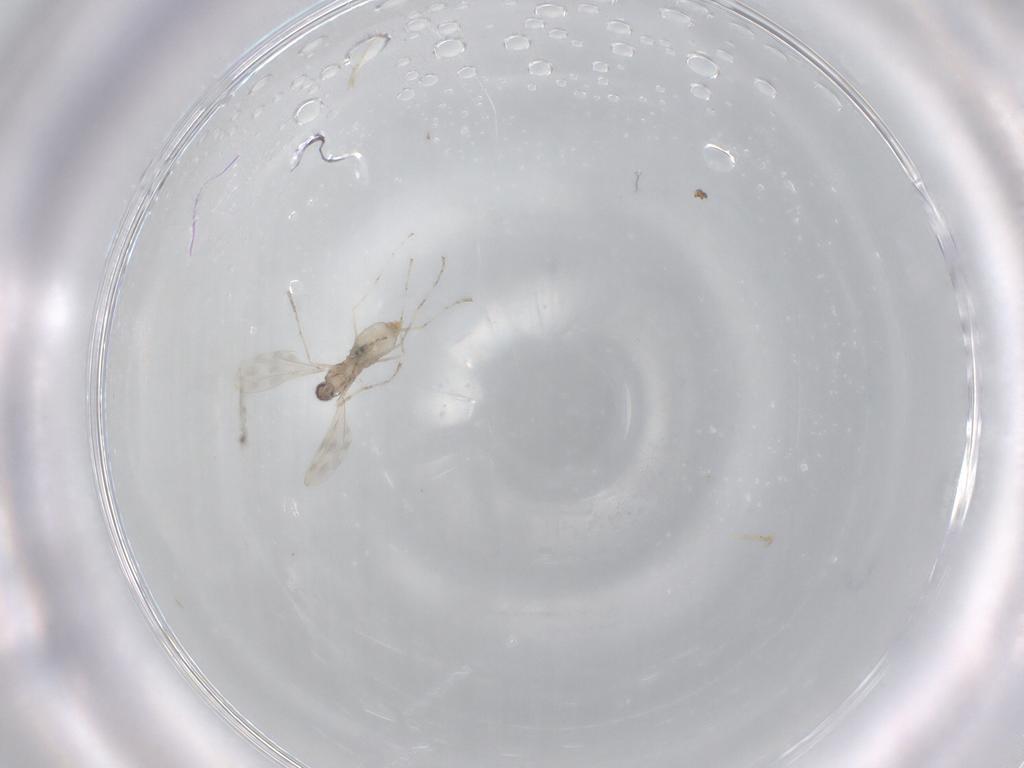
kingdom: Animalia
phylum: Arthropoda
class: Insecta
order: Diptera
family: Cecidomyiidae
